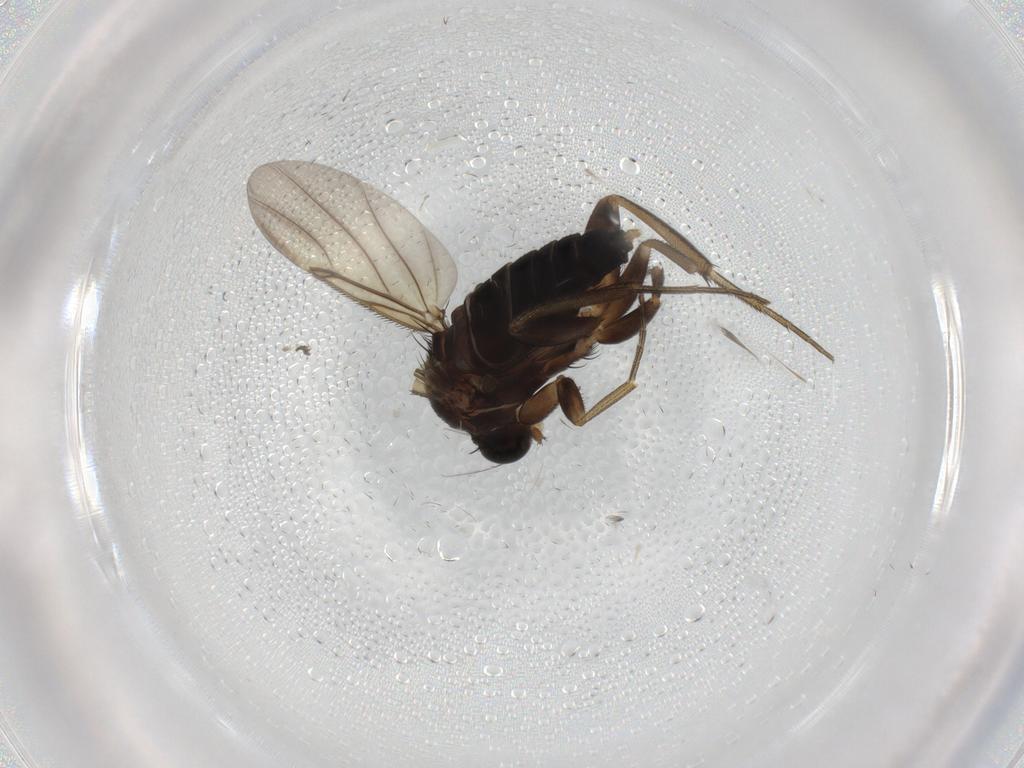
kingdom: Animalia
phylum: Arthropoda
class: Insecta
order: Diptera
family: Phoridae
